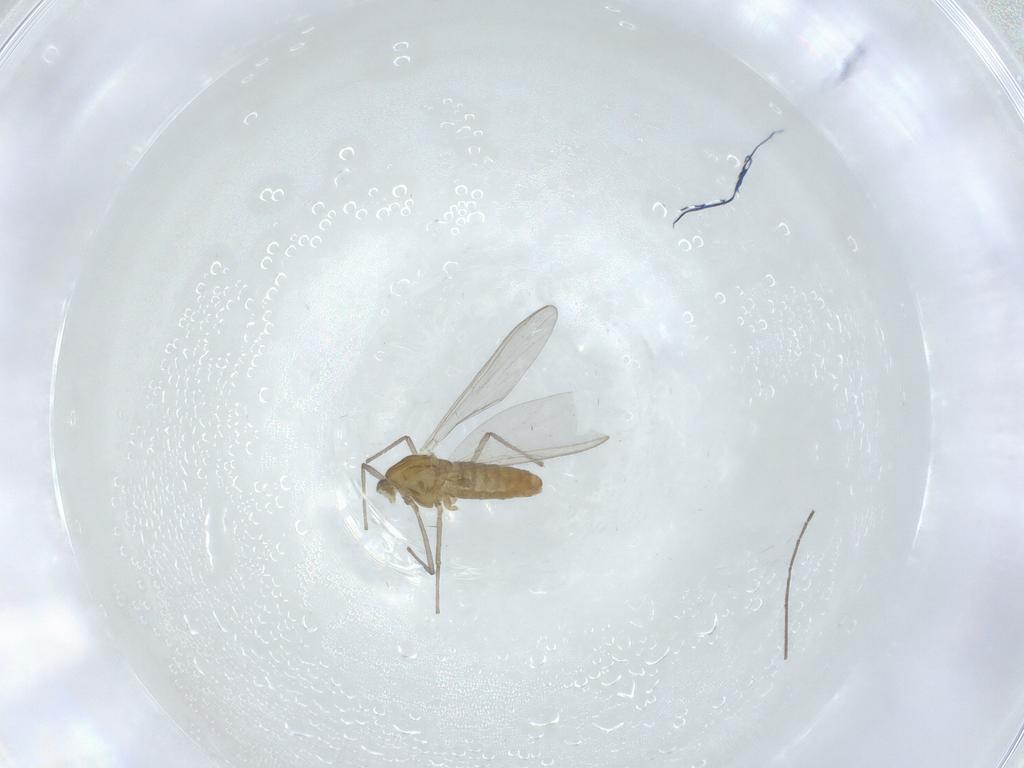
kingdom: Animalia
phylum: Arthropoda
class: Insecta
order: Diptera
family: Chironomidae
